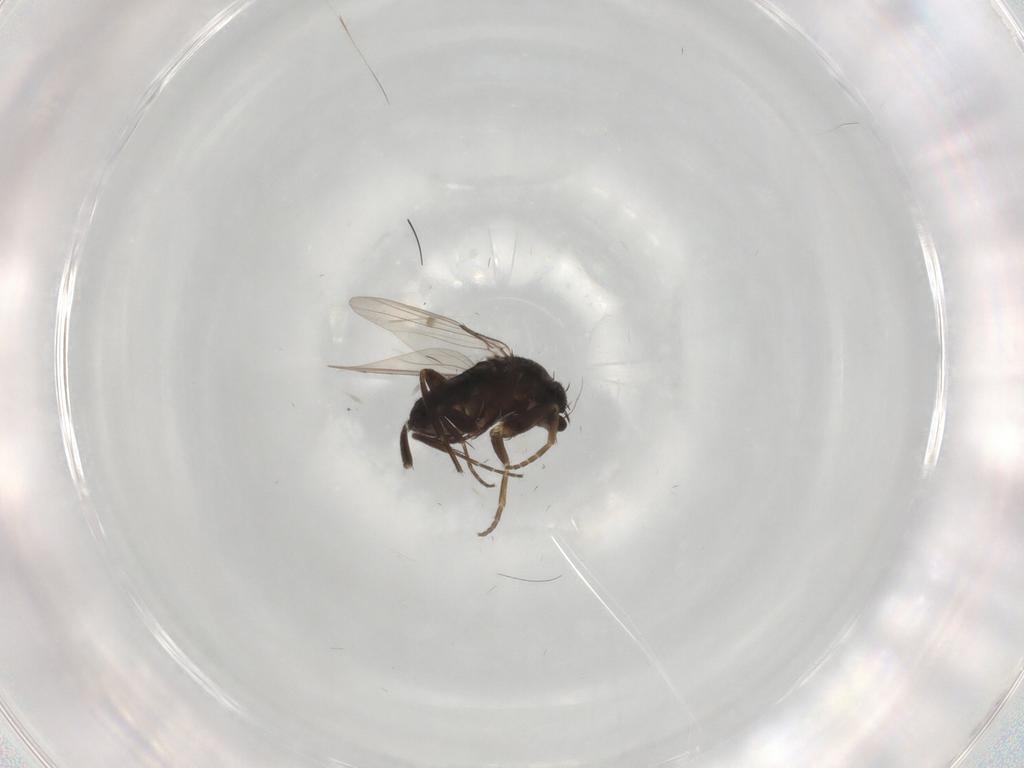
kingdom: Animalia
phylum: Arthropoda
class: Insecta
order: Diptera
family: Phoridae
